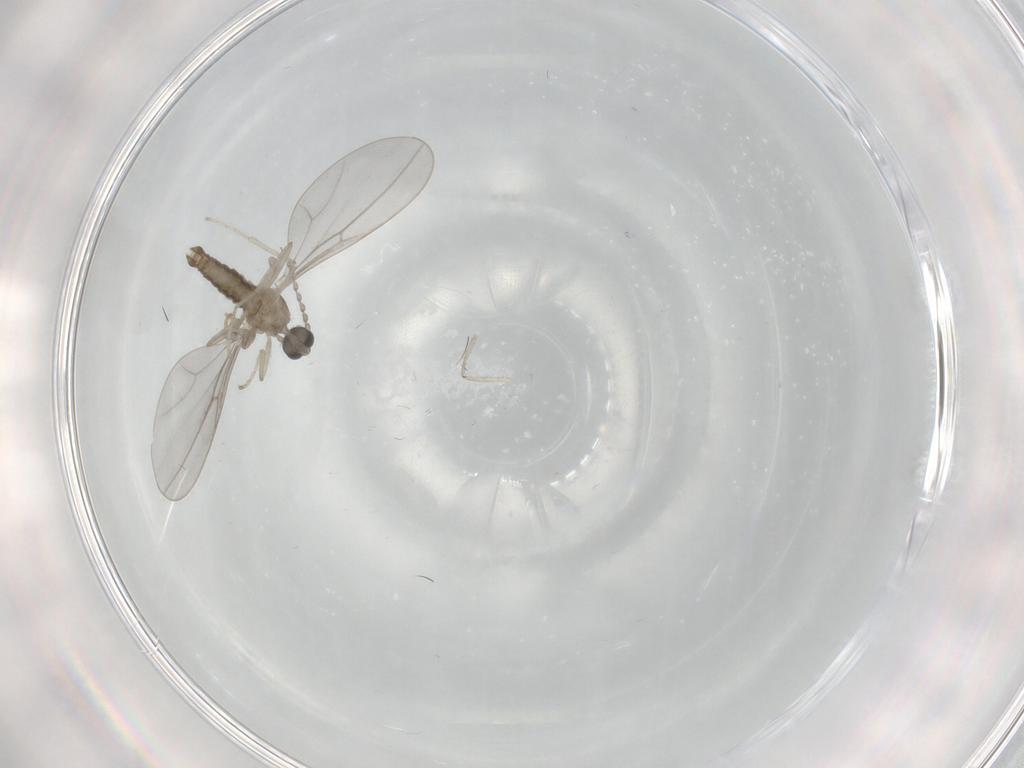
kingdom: Animalia
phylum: Arthropoda
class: Insecta
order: Diptera
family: Cecidomyiidae
